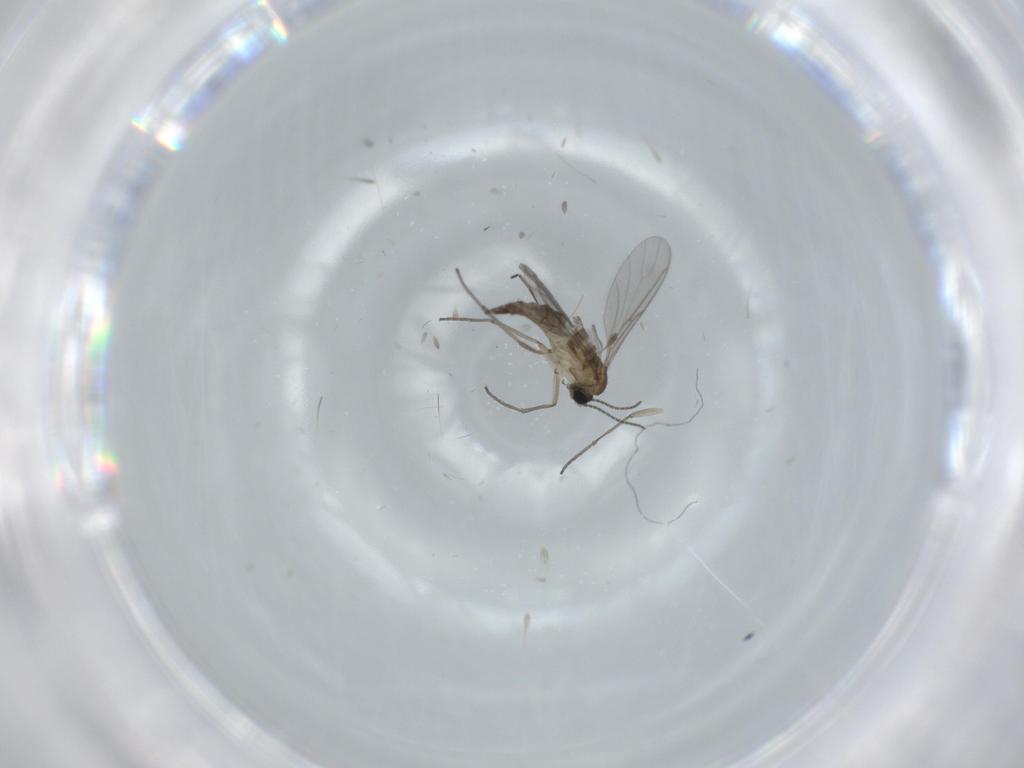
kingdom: Animalia
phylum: Arthropoda
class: Insecta
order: Diptera
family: Sciaridae
